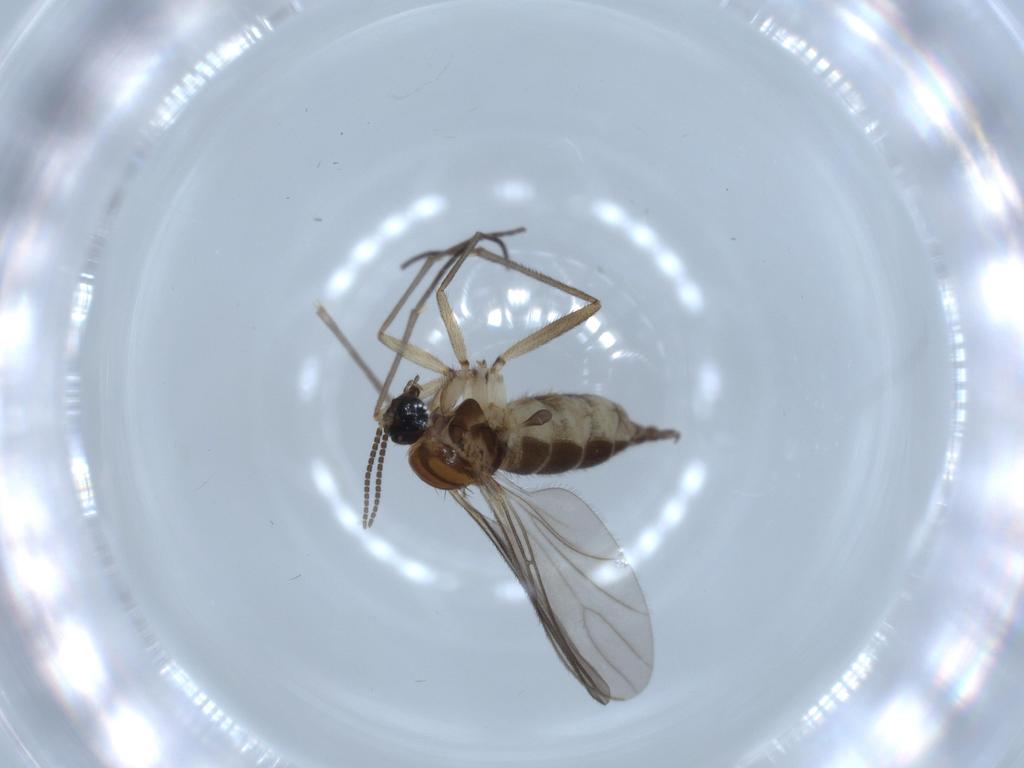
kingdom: Animalia
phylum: Arthropoda
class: Insecta
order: Diptera
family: Sciaridae
